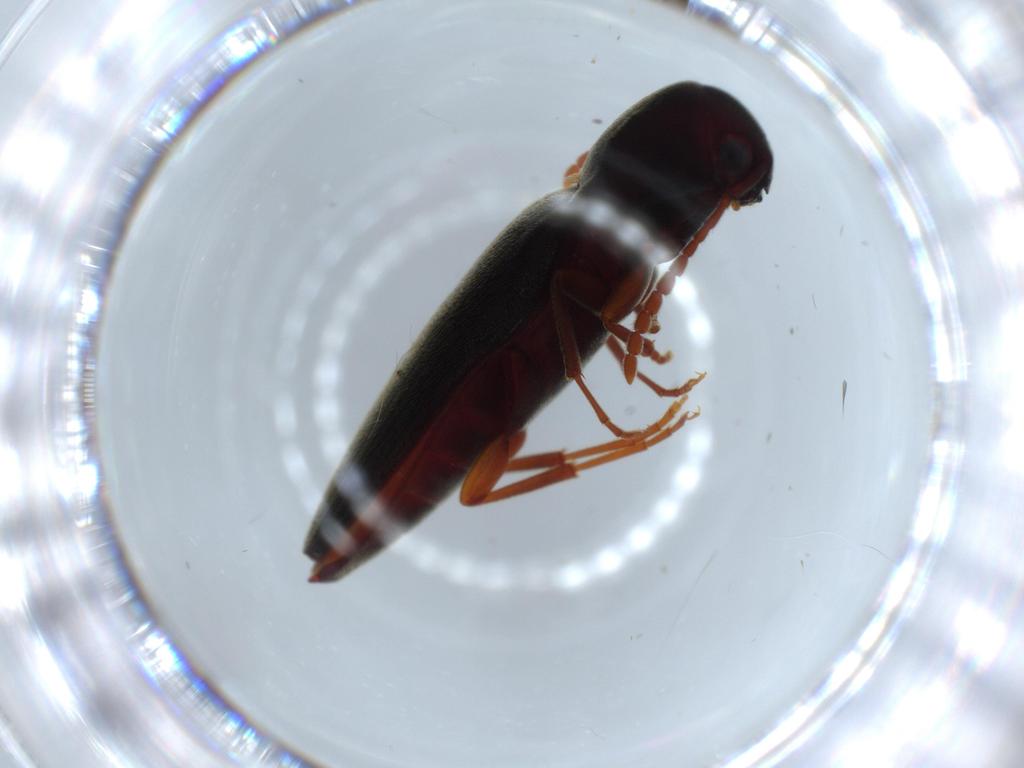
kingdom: Animalia
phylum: Arthropoda
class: Insecta
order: Coleoptera
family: Eucnemidae
